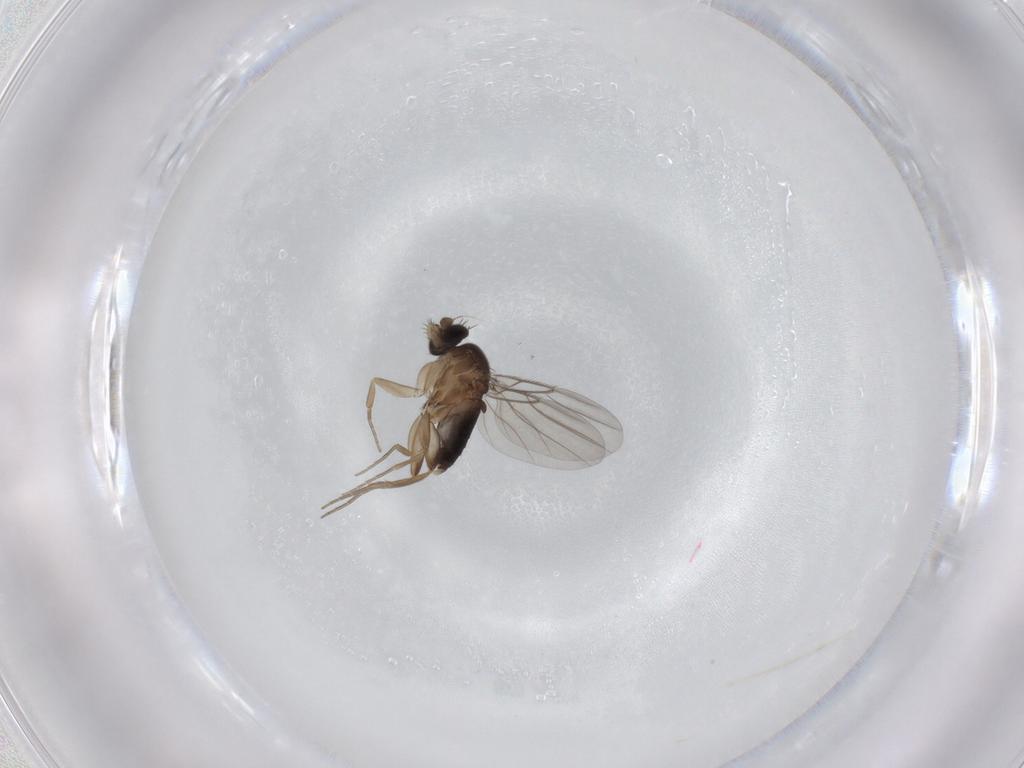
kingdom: Animalia
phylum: Arthropoda
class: Insecta
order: Diptera
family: Phoridae
